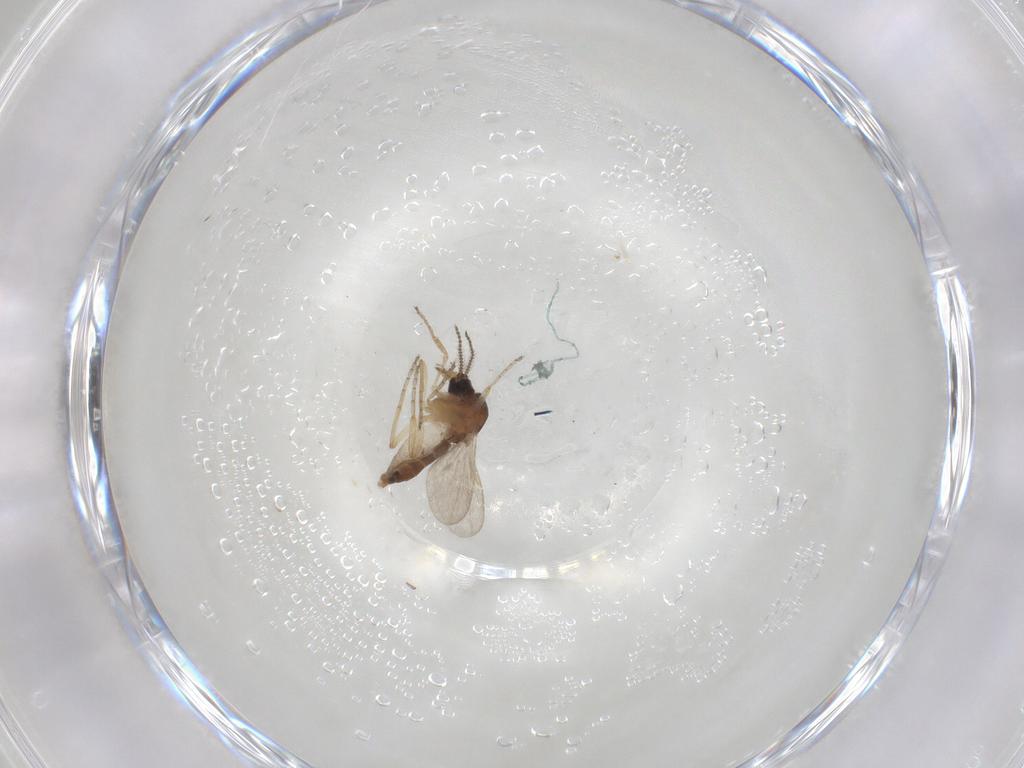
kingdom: Animalia
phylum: Arthropoda
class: Insecta
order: Diptera
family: Ceratopogonidae
